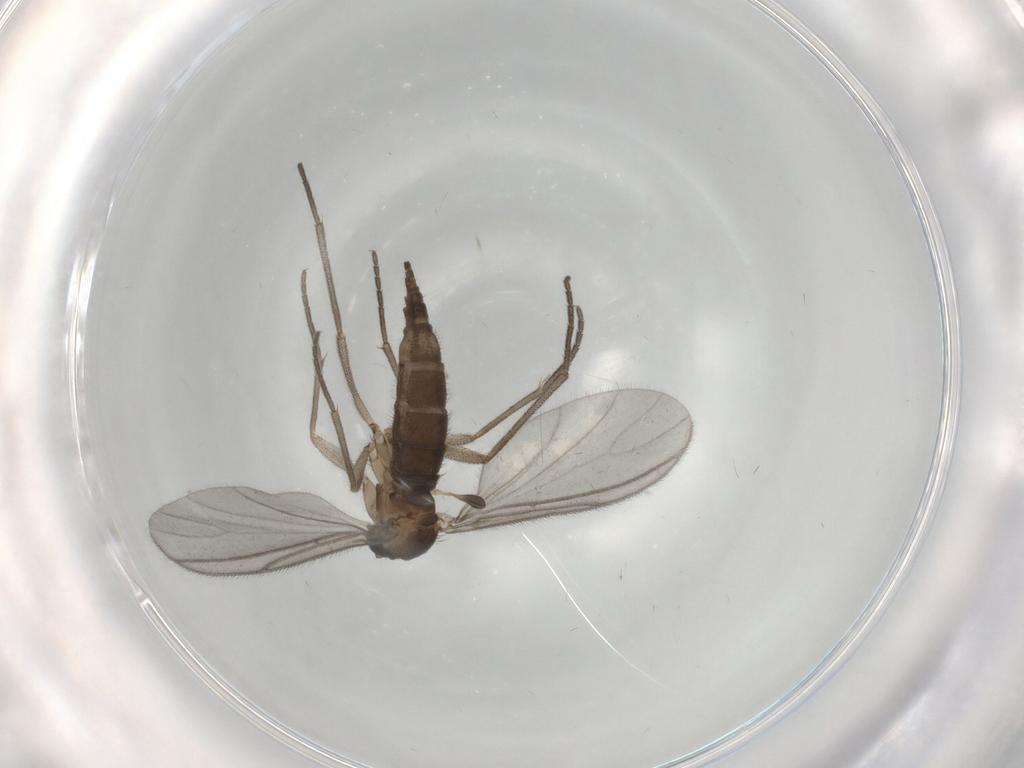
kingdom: Animalia
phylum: Arthropoda
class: Insecta
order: Diptera
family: Sciaridae
